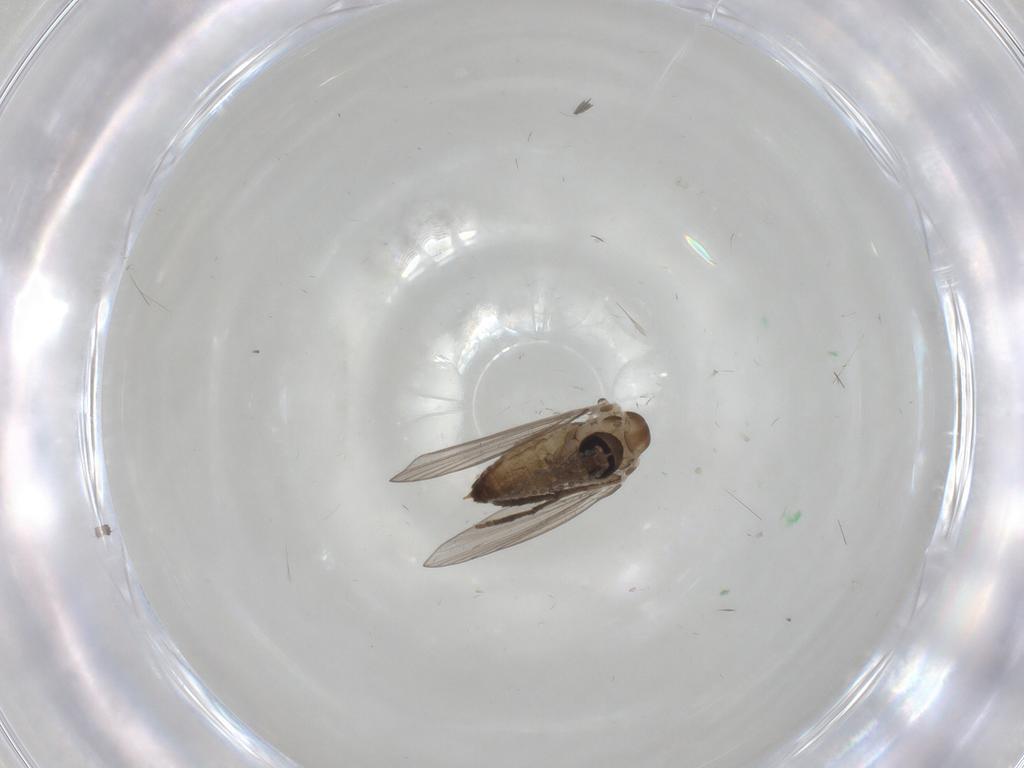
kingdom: Animalia
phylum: Arthropoda
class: Insecta
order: Diptera
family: Psychodidae
